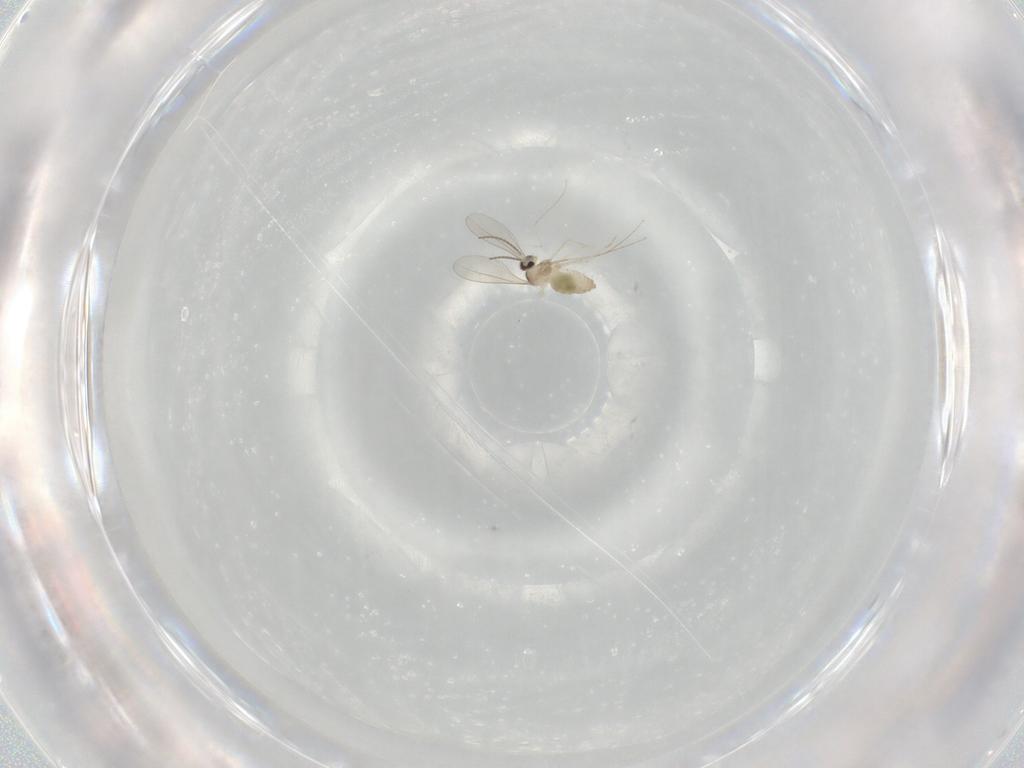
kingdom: Animalia
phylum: Arthropoda
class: Insecta
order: Diptera
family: Cecidomyiidae
